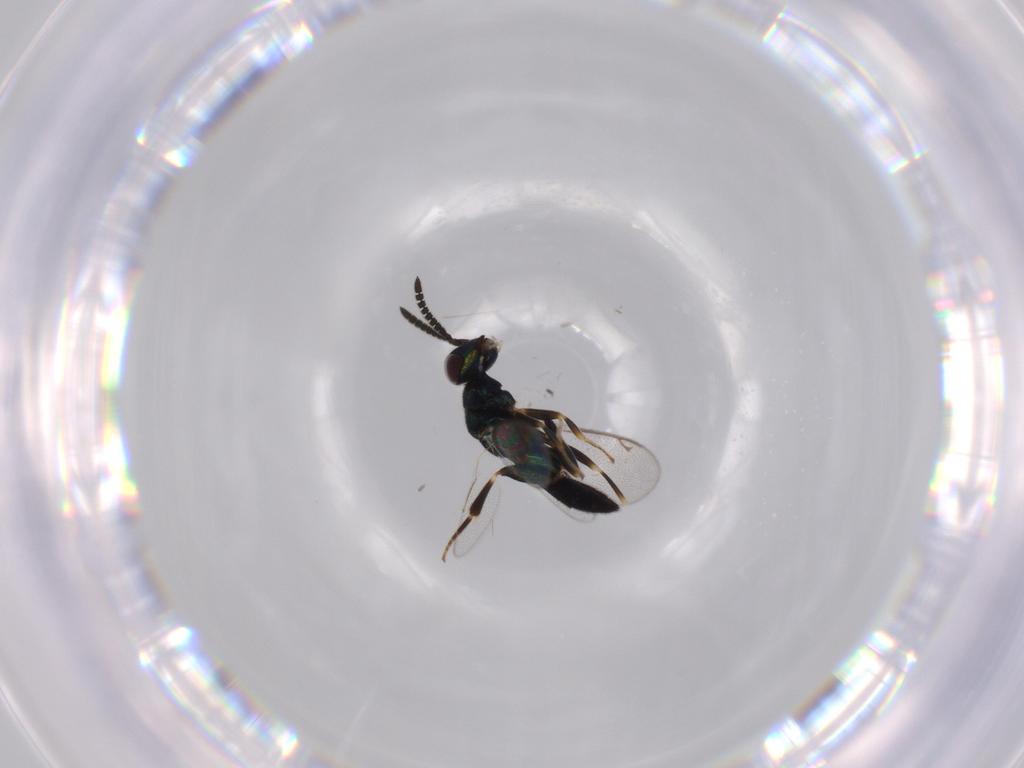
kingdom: Animalia
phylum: Arthropoda
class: Insecta
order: Hymenoptera
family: Cleonyminae
